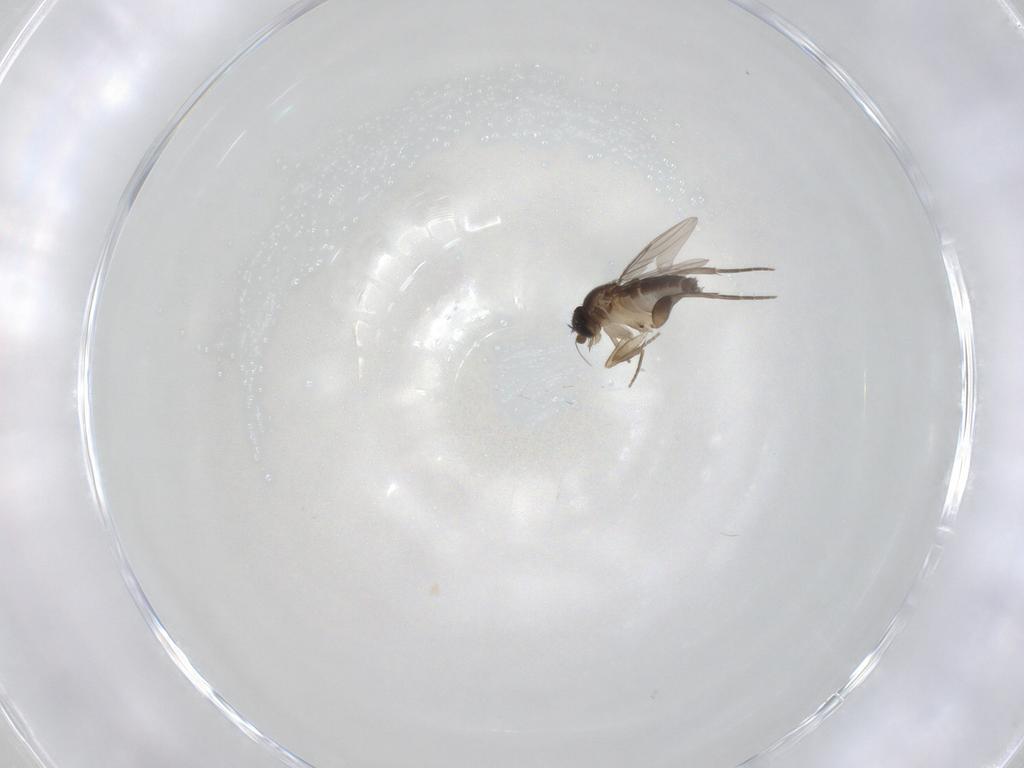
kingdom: Animalia
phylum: Arthropoda
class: Insecta
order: Diptera
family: Phoridae
